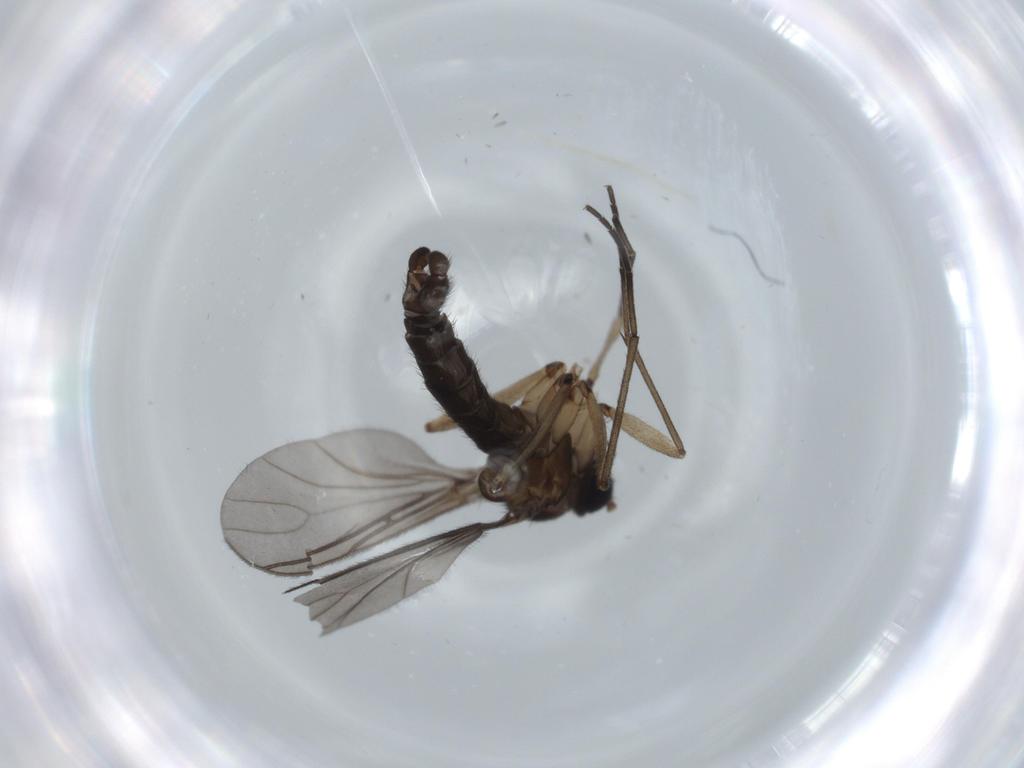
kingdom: Animalia
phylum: Arthropoda
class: Insecta
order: Diptera
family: Sciaridae
